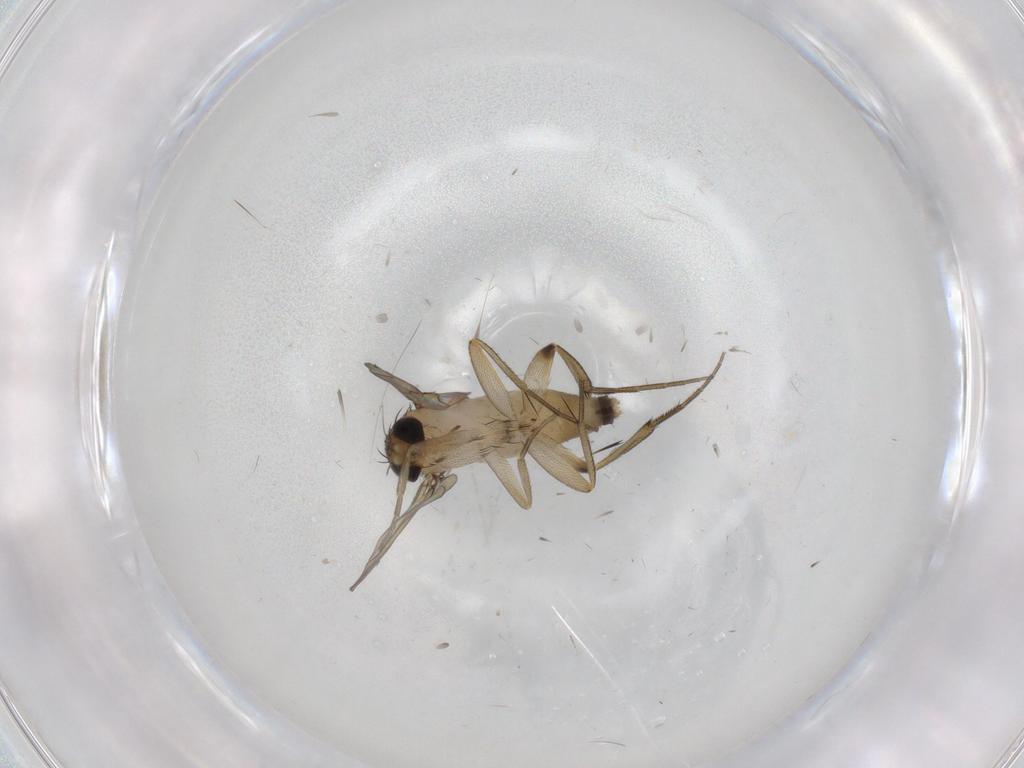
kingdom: Animalia
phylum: Arthropoda
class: Insecta
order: Diptera
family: Phoridae
